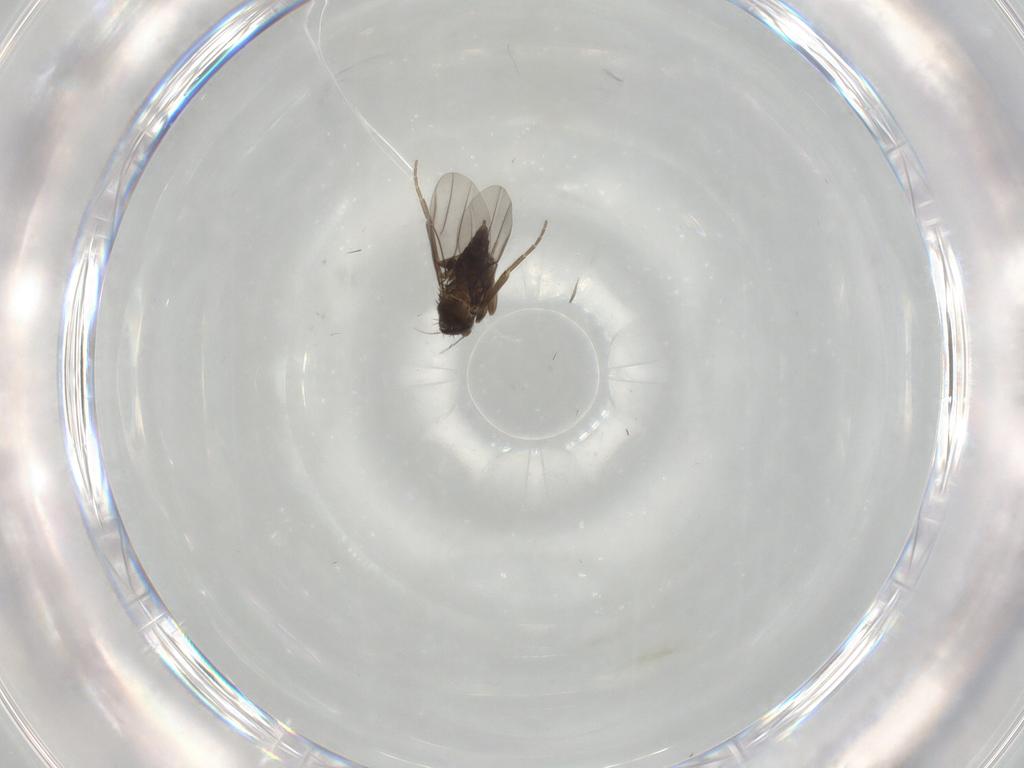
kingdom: Animalia
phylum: Arthropoda
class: Insecta
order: Diptera
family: Phoridae
